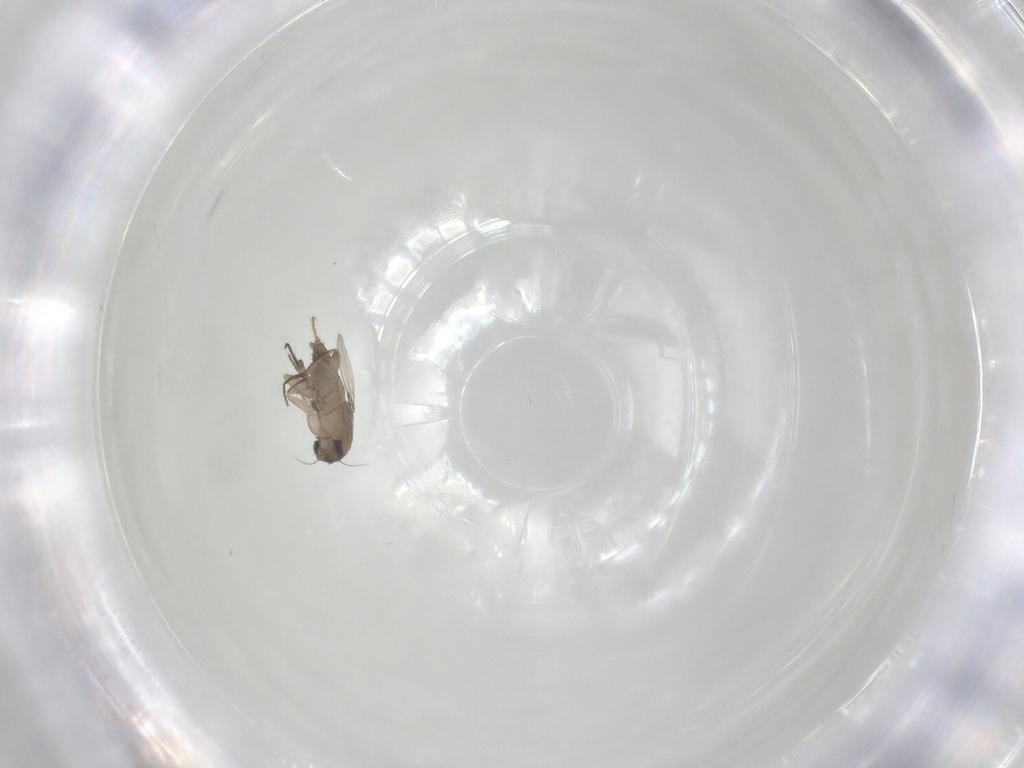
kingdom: Animalia
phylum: Arthropoda
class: Insecta
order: Diptera
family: Phoridae
